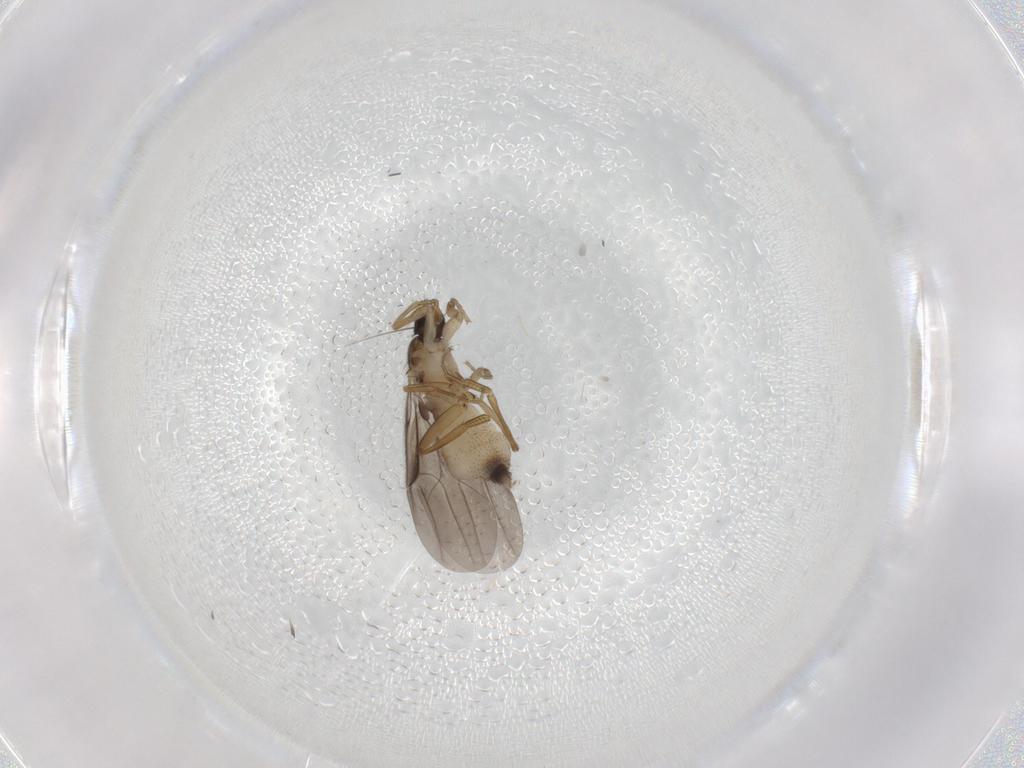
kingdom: Animalia
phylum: Arthropoda
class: Insecta
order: Diptera
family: Phoridae
